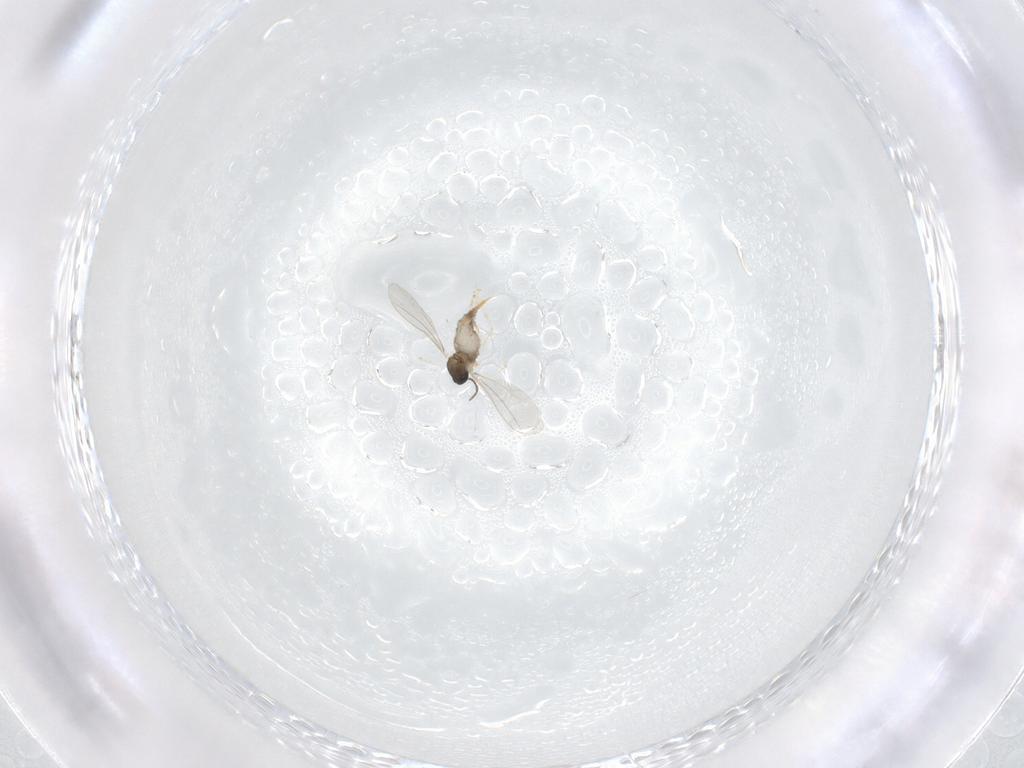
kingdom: Animalia
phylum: Arthropoda
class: Insecta
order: Diptera
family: Cecidomyiidae
